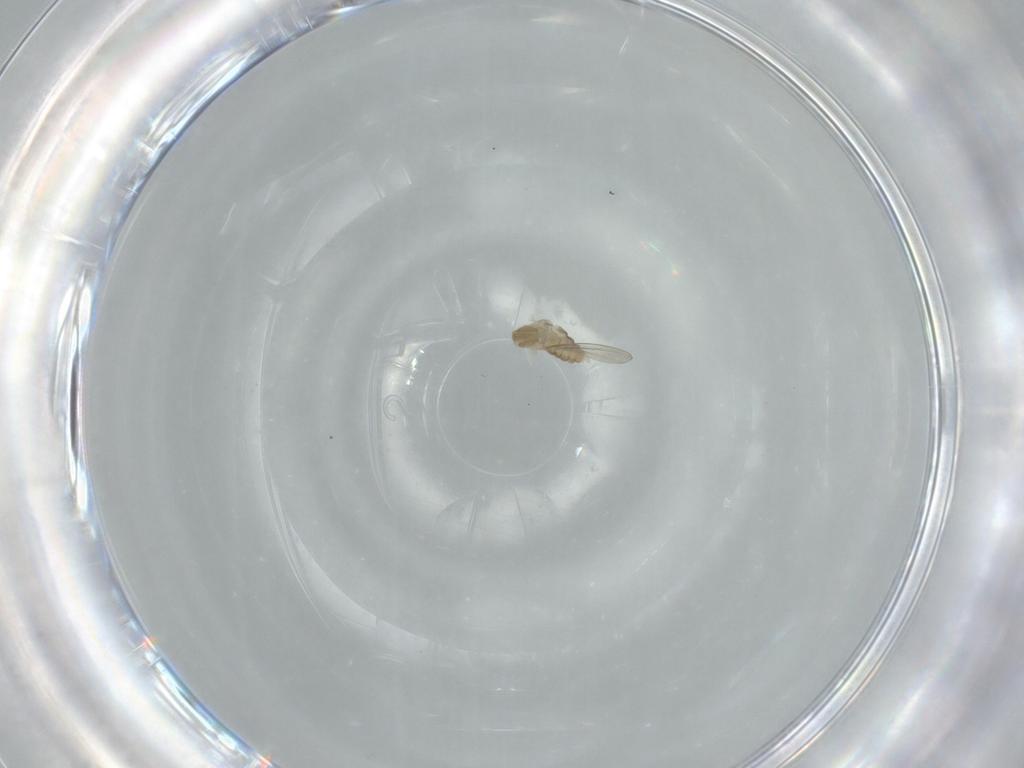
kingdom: Animalia
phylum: Arthropoda
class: Insecta
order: Diptera
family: Cecidomyiidae
